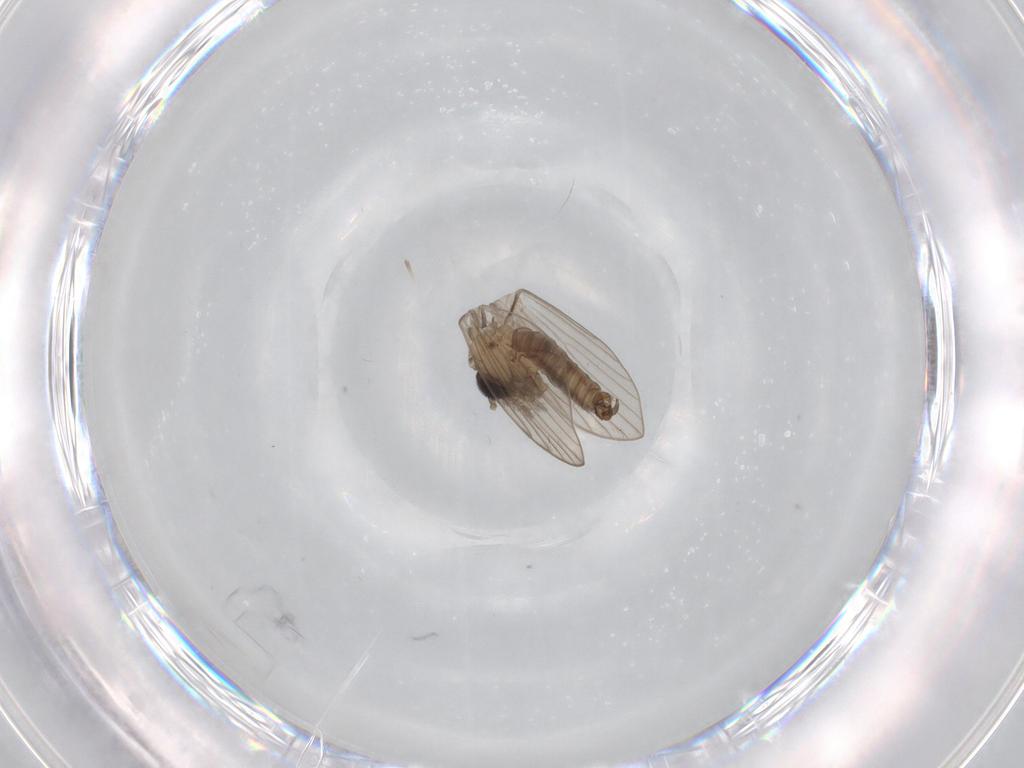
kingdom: Animalia
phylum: Arthropoda
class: Insecta
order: Diptera
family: Psychodidae
